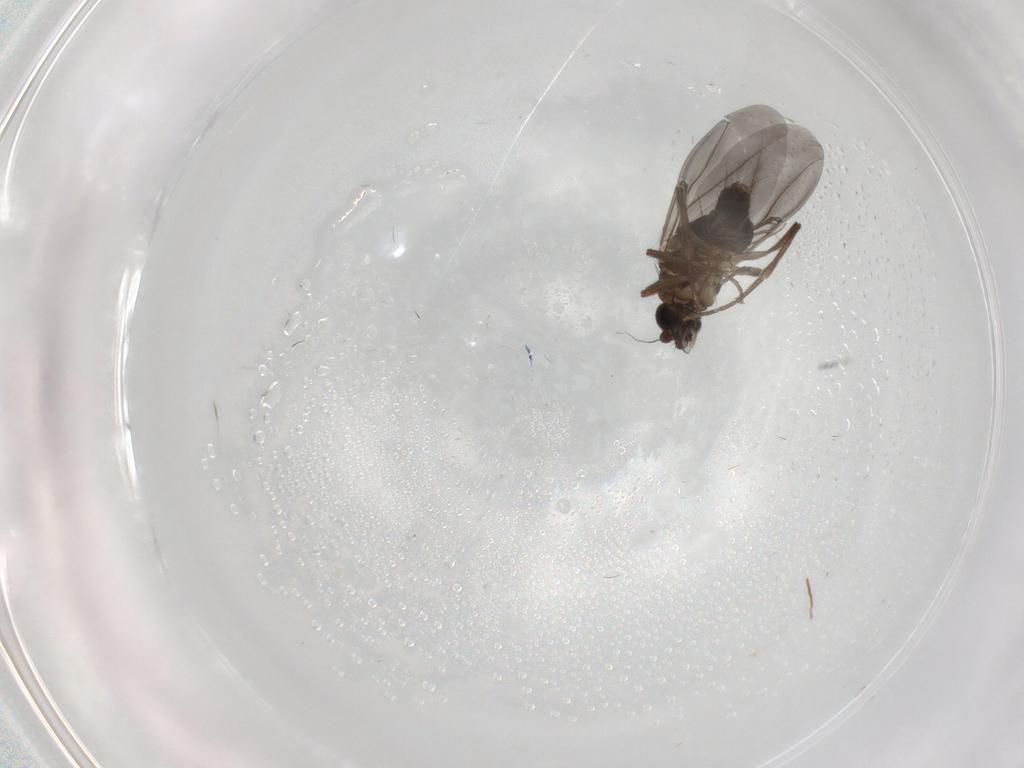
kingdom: Animalia
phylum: Arthropoda
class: Insecta
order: Diptera
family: Phoridae
